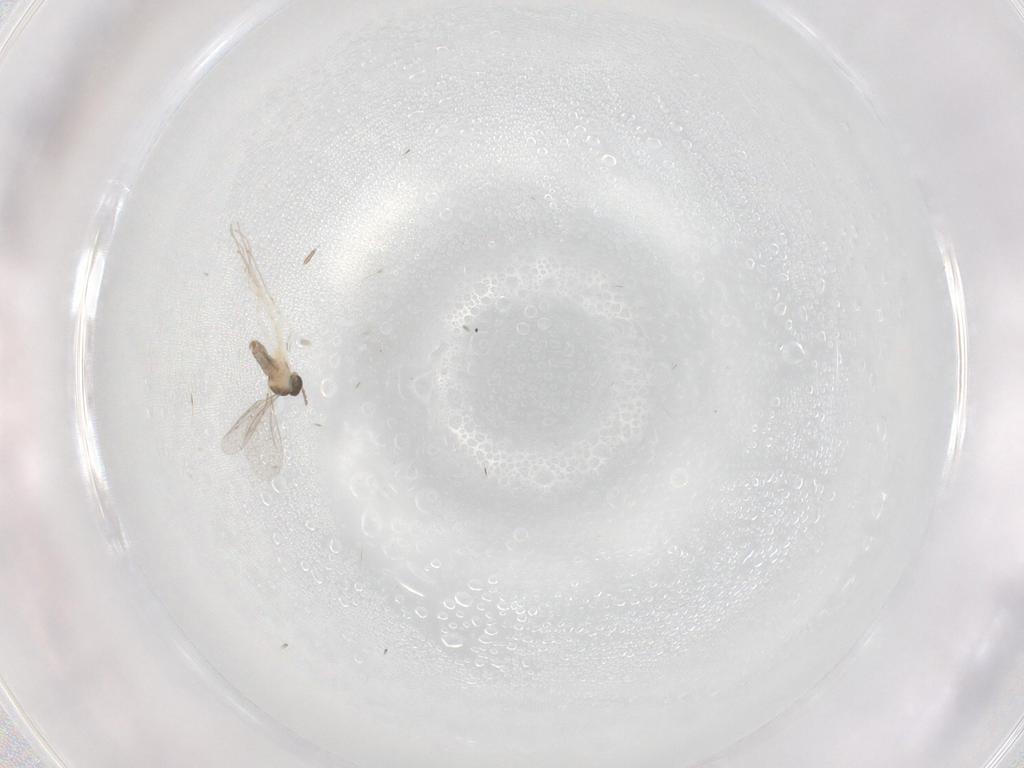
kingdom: Animalia
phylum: Arthropoda
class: Insecta
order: Diptera
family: Psychodidae
